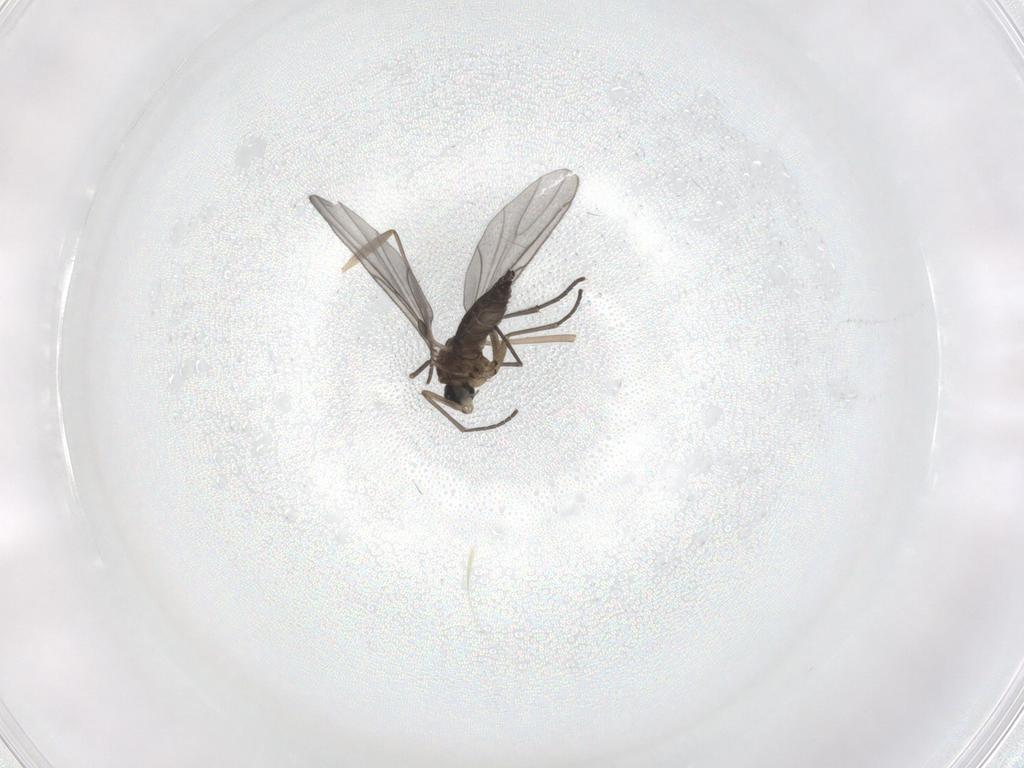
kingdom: Animalia
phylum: Arthropoda
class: Insecta
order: Diptera
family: Sciaridae
